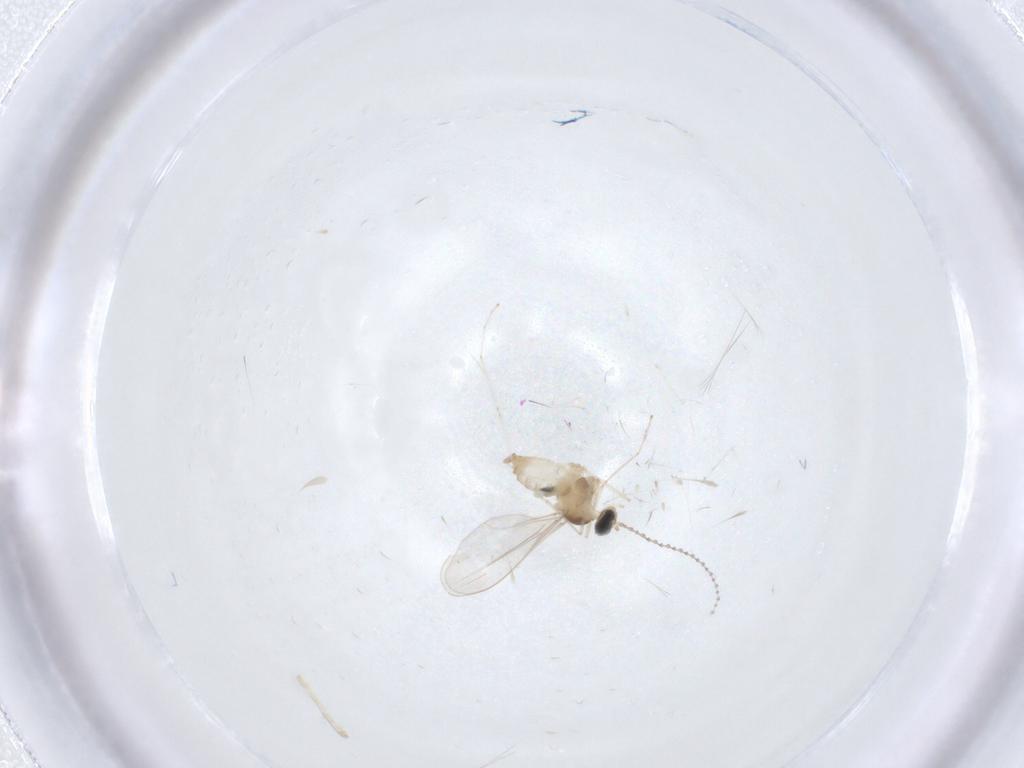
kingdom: Animalia
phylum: Arthropoda
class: Insecta
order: Diptera
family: Cecidomyiidae
